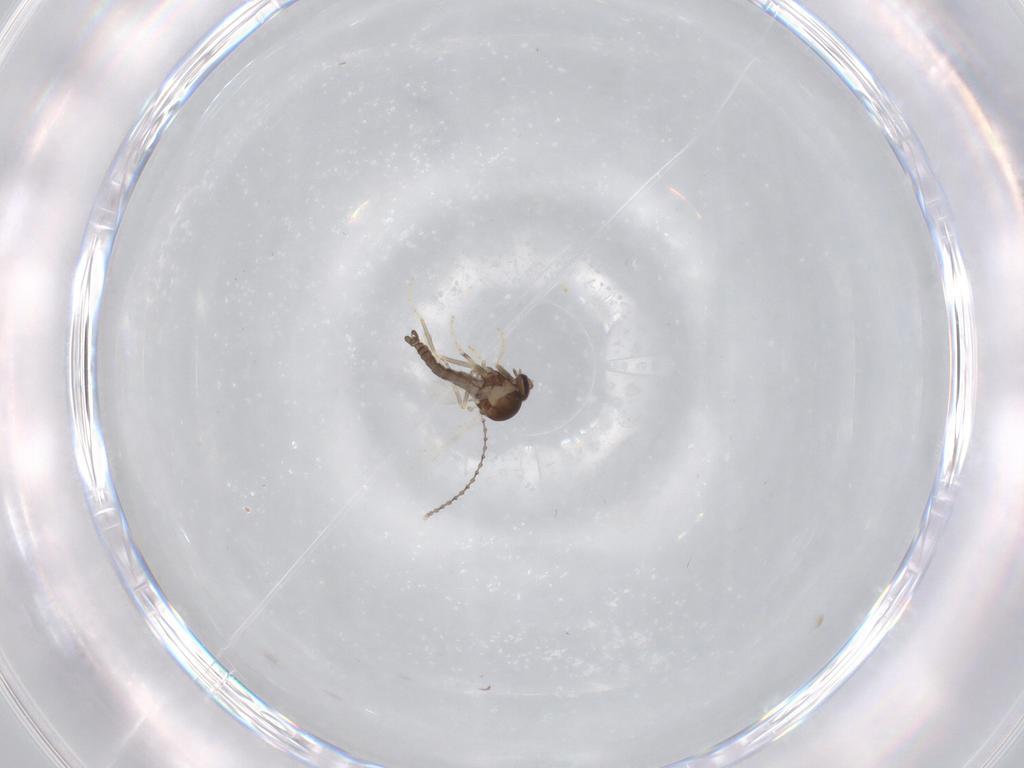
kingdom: Animalia
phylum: Arthropoda
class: Insecta
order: Diptera
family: Cecidomyiidae
